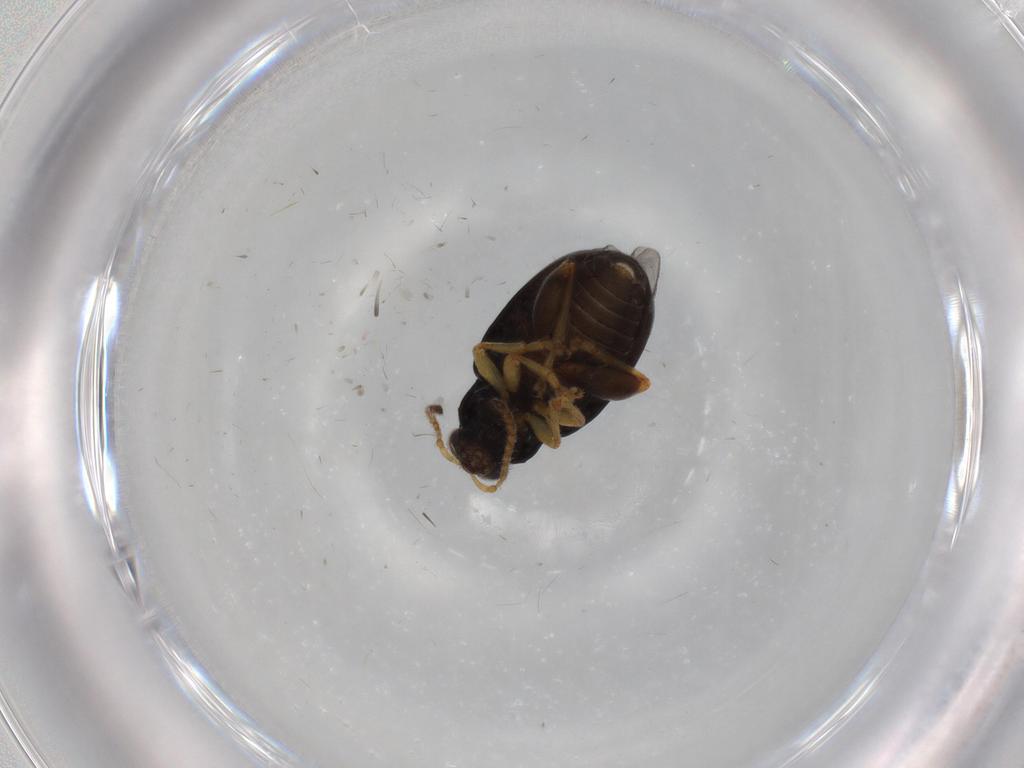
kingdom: Animalia
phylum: Arthropoda
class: Insecta
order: Coleoptera
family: Chrysomelidae
